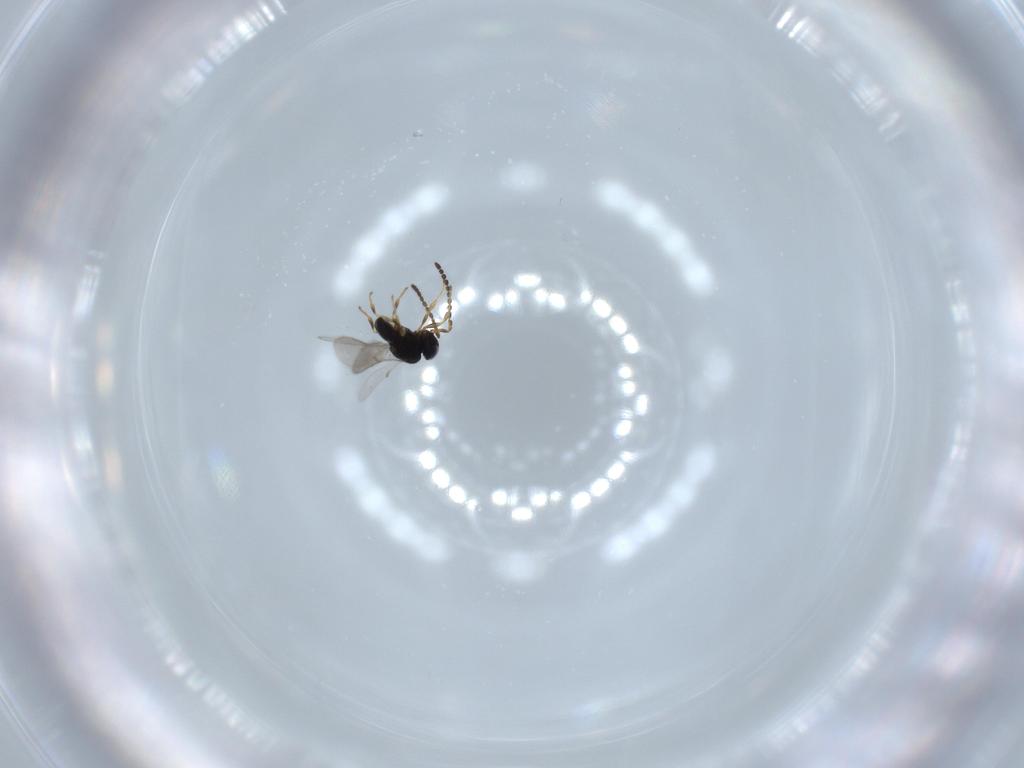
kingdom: Animalia
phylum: Arthropoda
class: Insecta
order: Hymenoptera
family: Scelionidae
